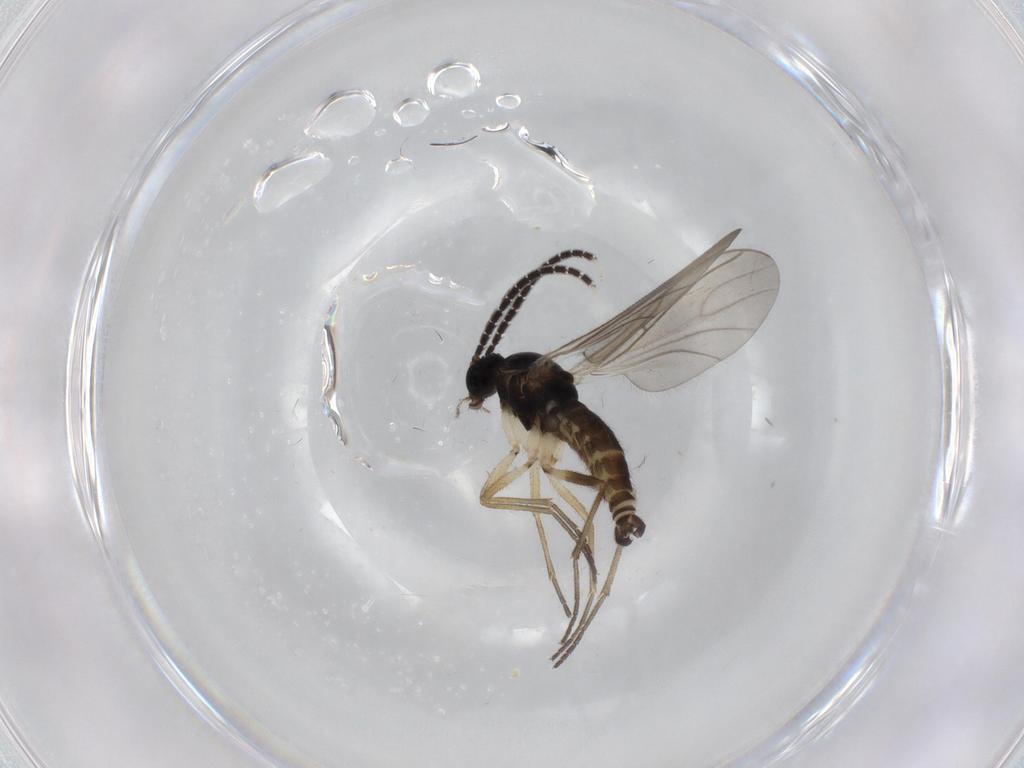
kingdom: Animalia
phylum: Arthropoda
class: Insecta
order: Diptera
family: Sciaridae
